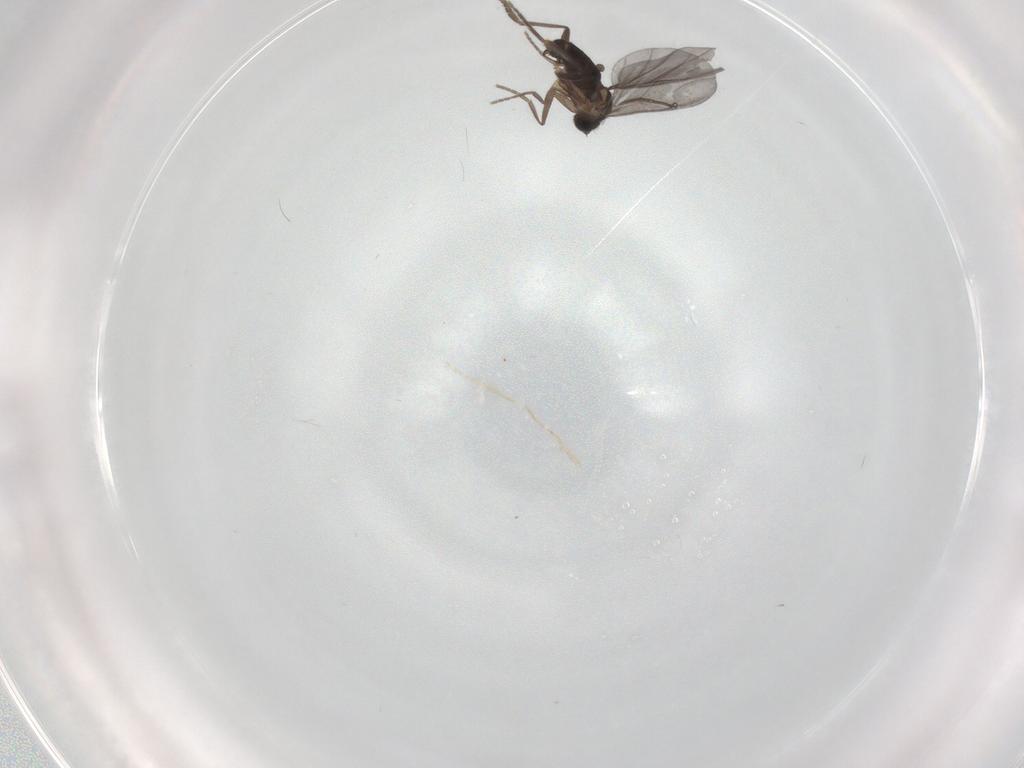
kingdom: Animalia
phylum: Arthropoda
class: Insecta
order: Diptera
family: Phoridae
